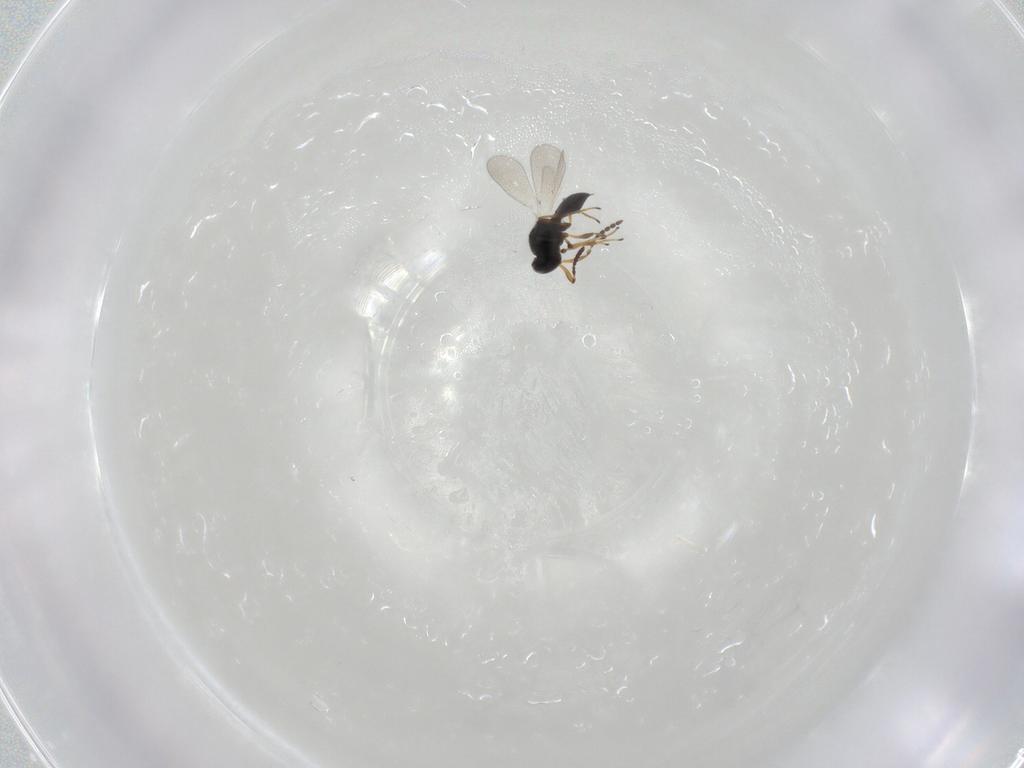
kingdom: Animalia
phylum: Arthropoda
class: Insecta
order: Hymenoptera
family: Platygastridae
